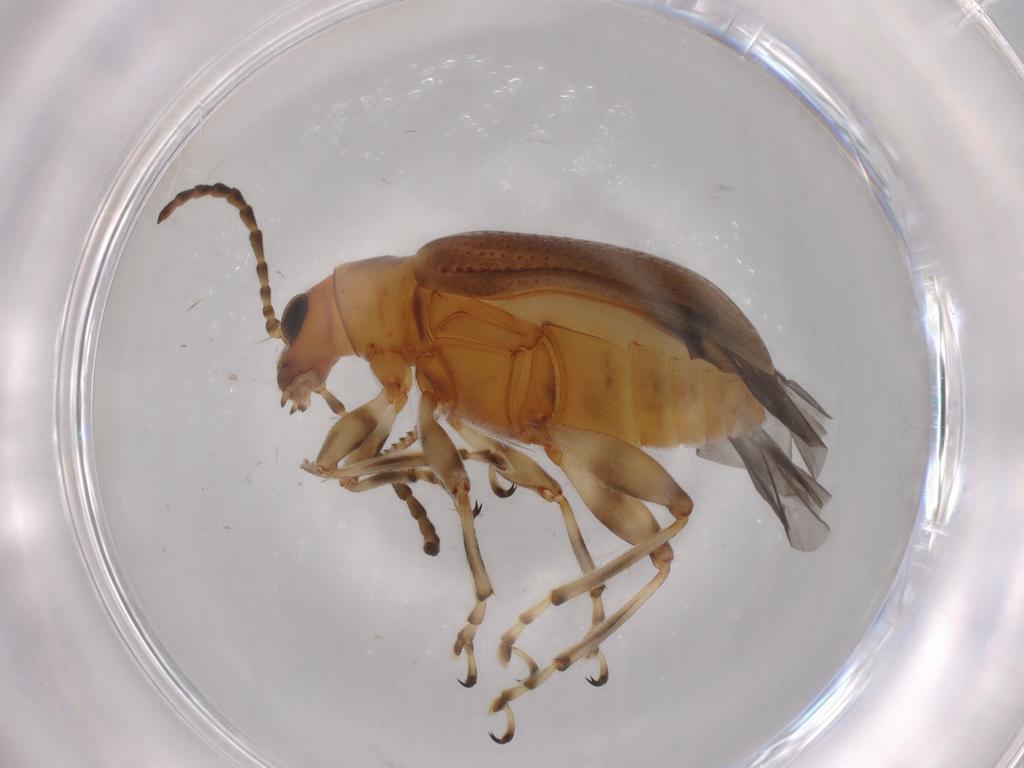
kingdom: Animalia
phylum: Arthropoda
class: Insecta
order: Coleoptera
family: Chrysomelidae
